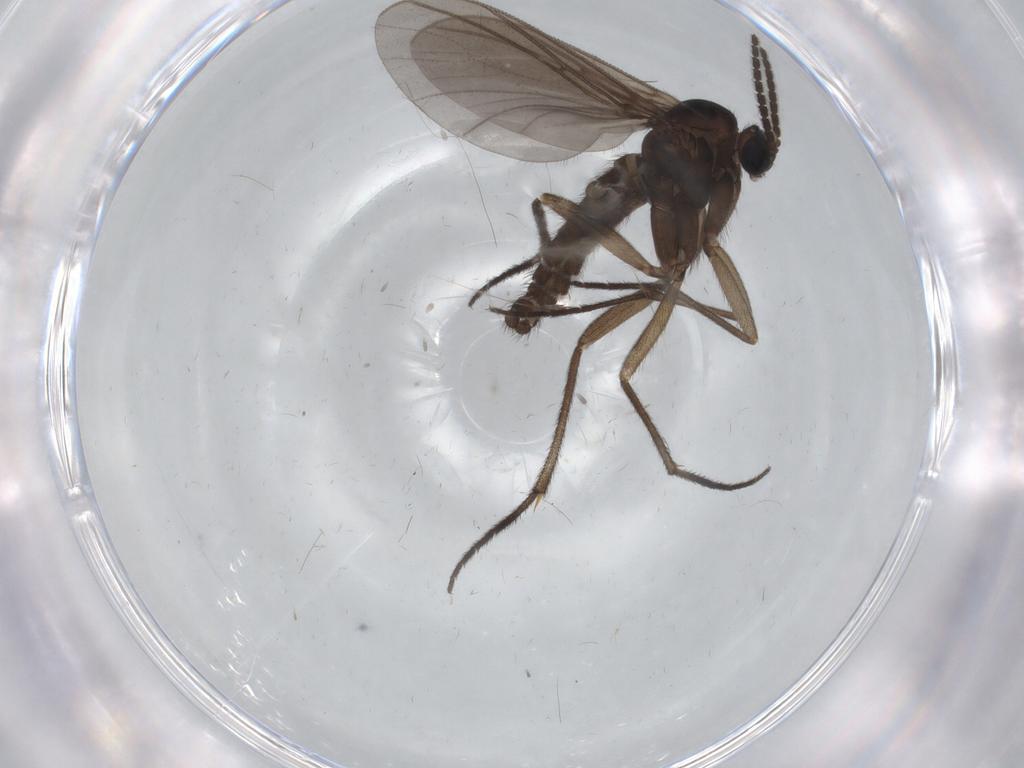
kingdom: Animalia
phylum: Arthropoda
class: Insecta
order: Diptera
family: Sciaridae
